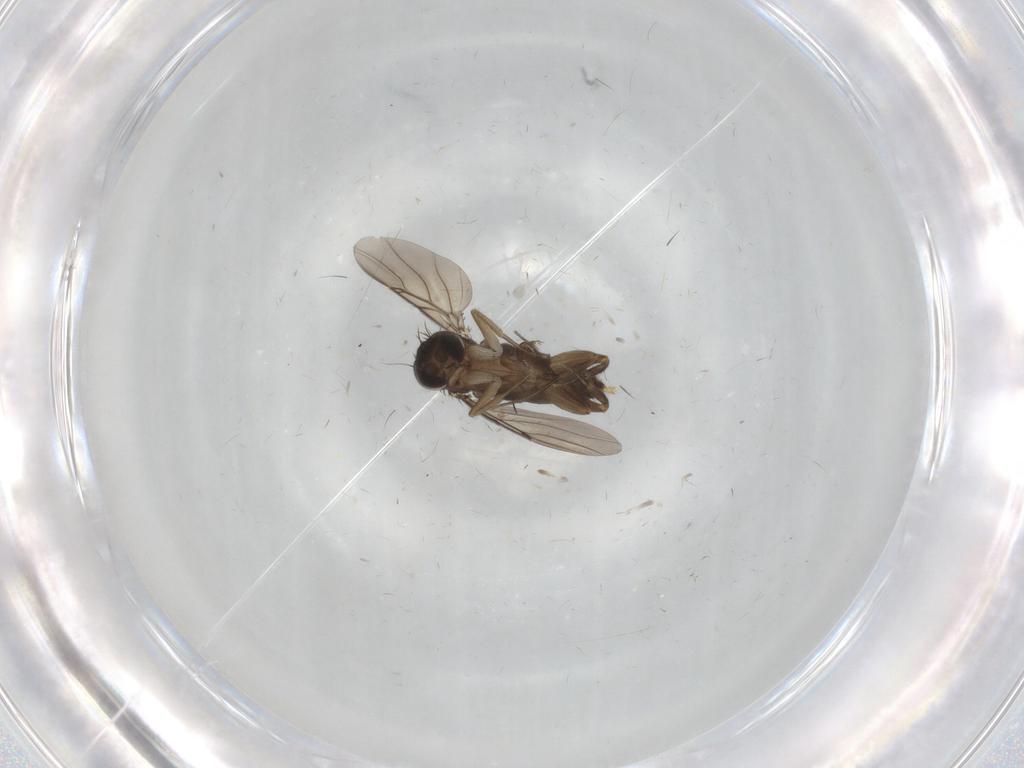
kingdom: Animalia
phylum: Arthropoda
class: Insecta
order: Diptera
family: Phoridae
